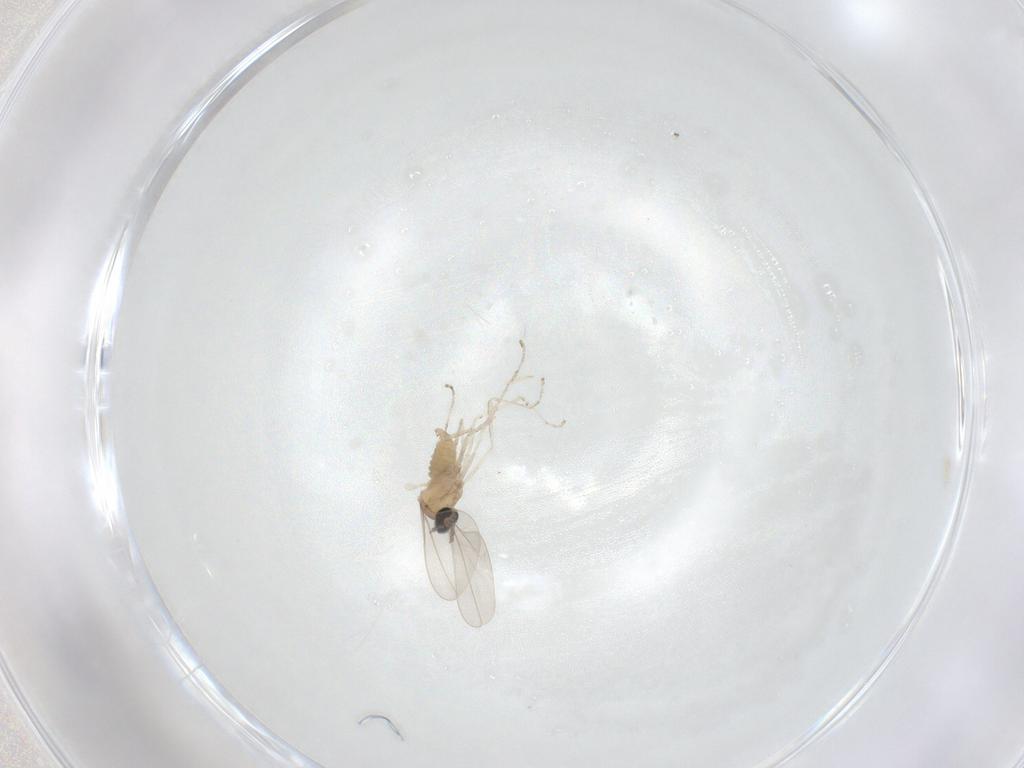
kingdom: Animalia
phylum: Arthropoda
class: Insecta
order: Diptera
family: Cecidomyiidae
